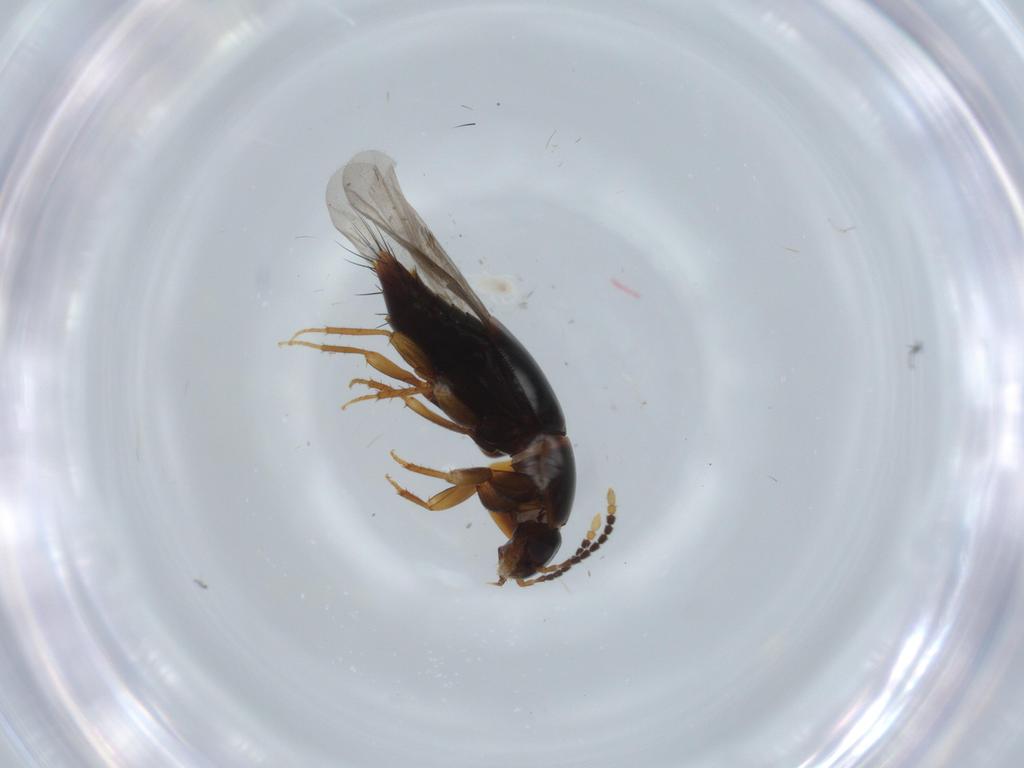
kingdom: Animalia
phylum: Arthropoda
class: Insecta
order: Coleoptera
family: Staphylinidae
